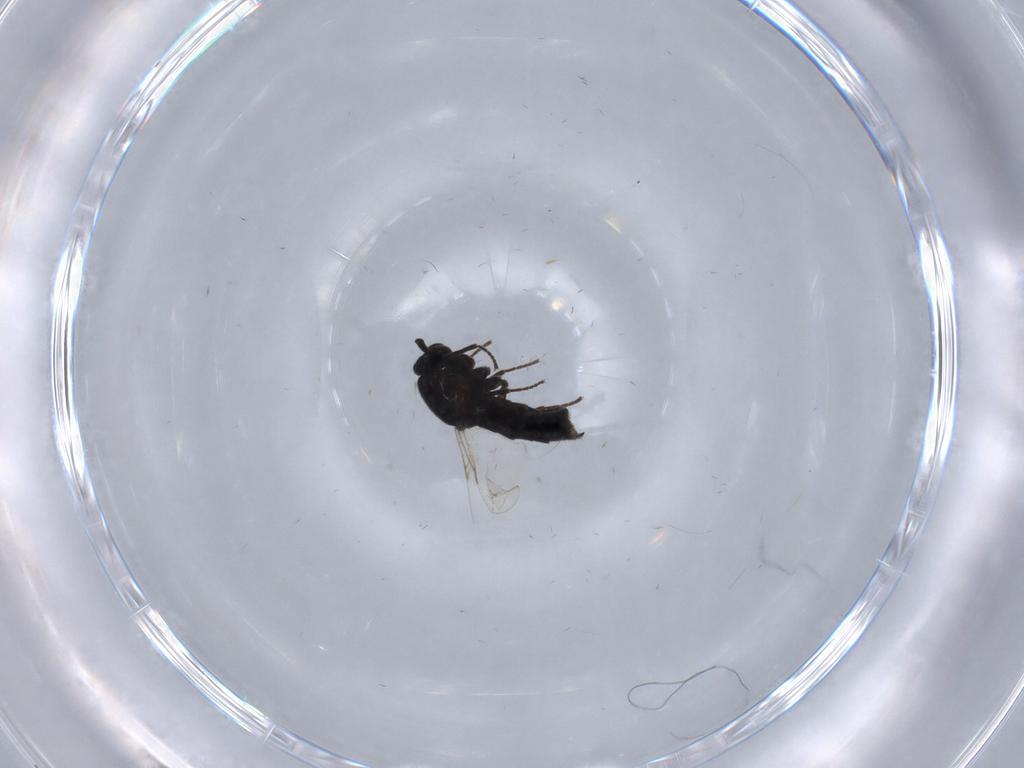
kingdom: Animalia
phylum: Arthropoda
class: Insecta
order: Diptera
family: Scatopsidae
